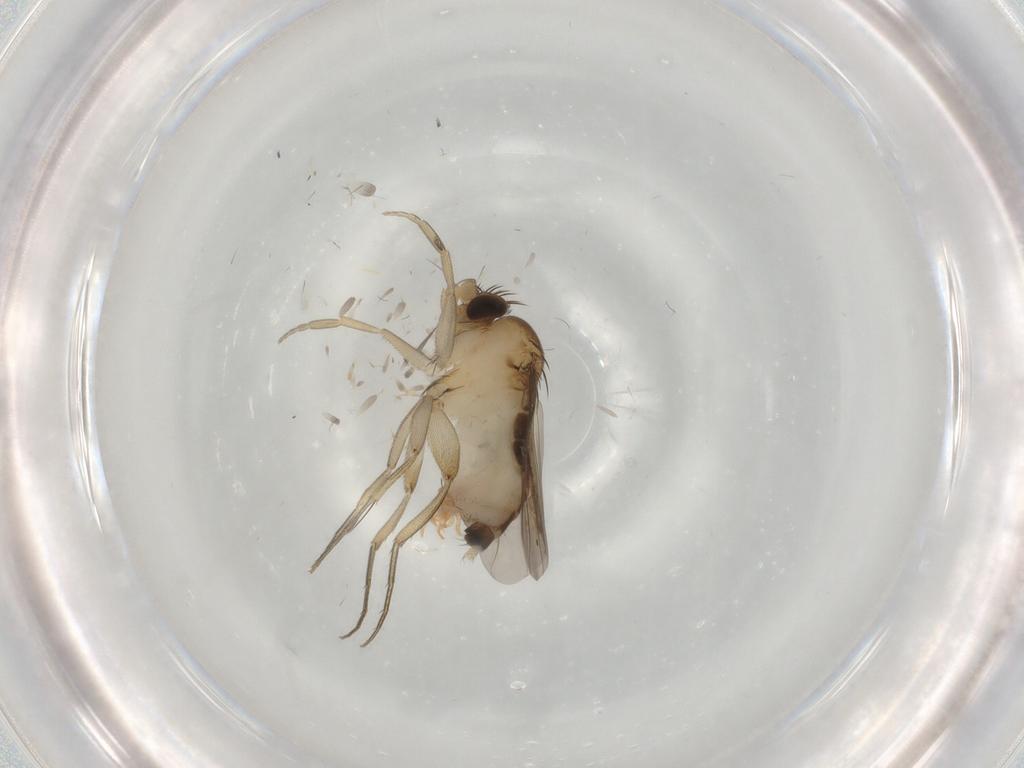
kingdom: Animalia
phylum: Arthropoda
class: Insecta
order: Diptera
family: Phoridae
